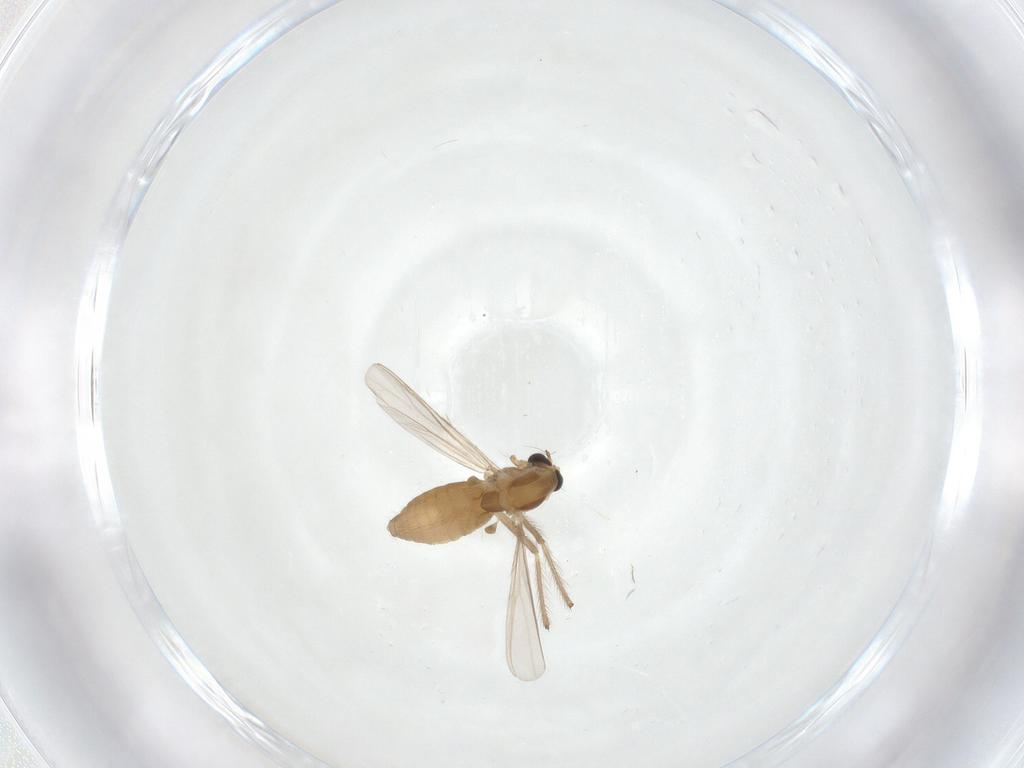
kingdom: Animalia
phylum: Arthropoda
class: Insecta
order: Diptera
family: Chironomidae
